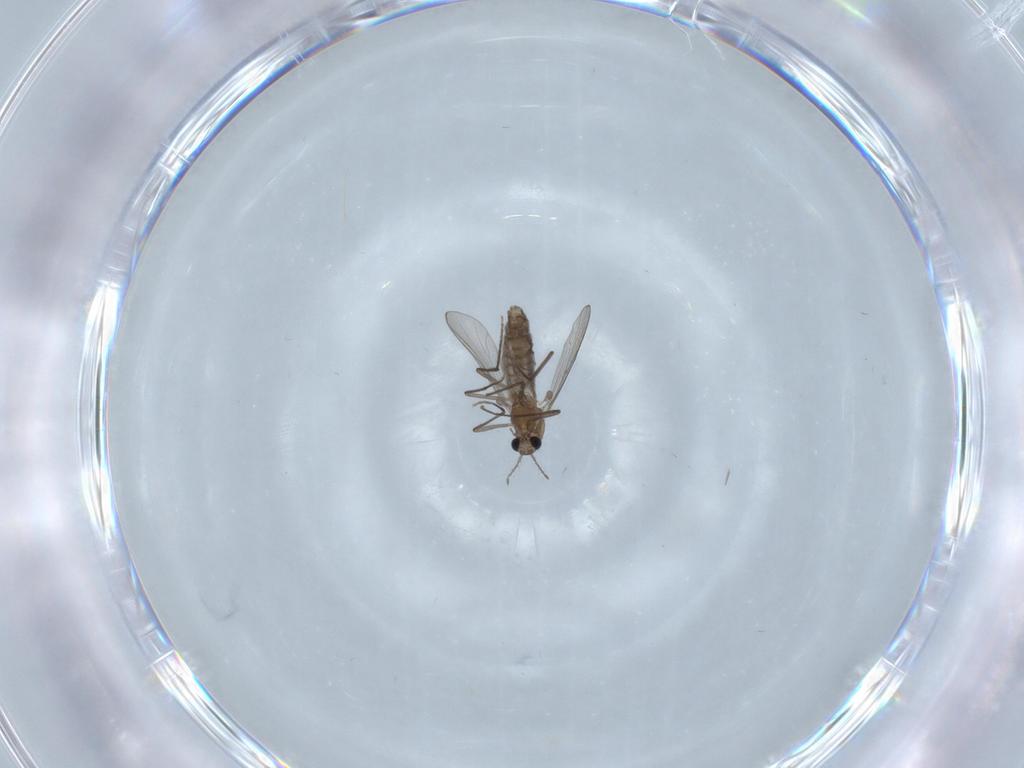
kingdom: Animalia
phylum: Arthropoda
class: Insecta
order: Diptera
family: Chironomidae
